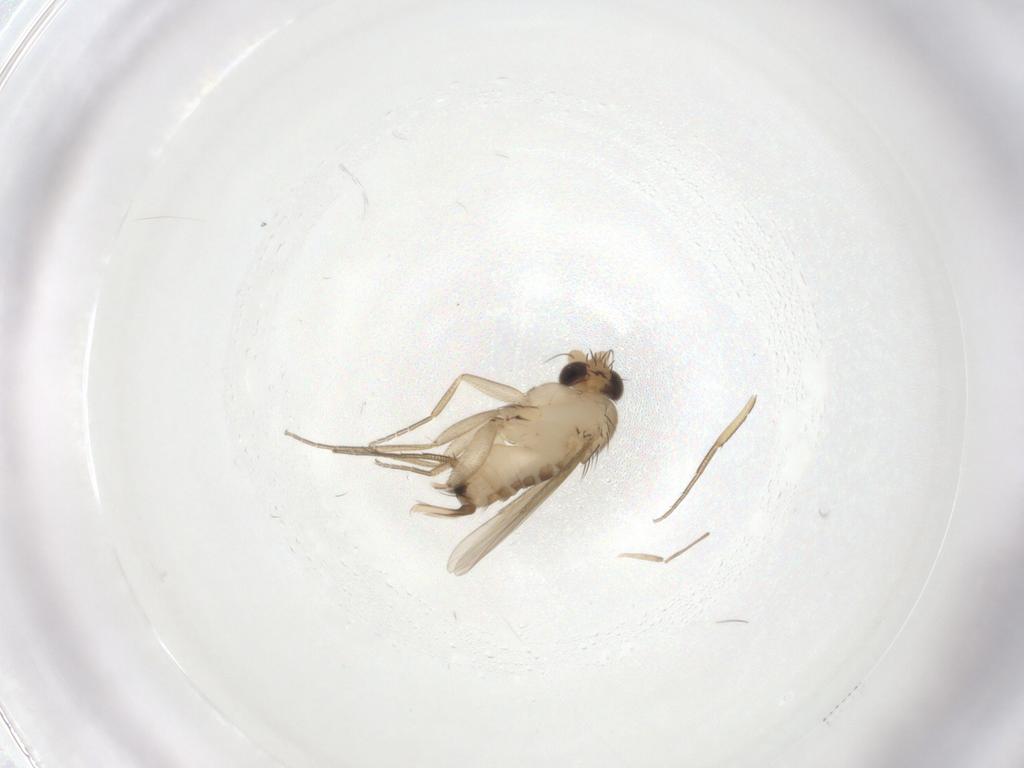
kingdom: Animalia
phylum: Arthropoda
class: Insecta
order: Diptera
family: Phoridae
